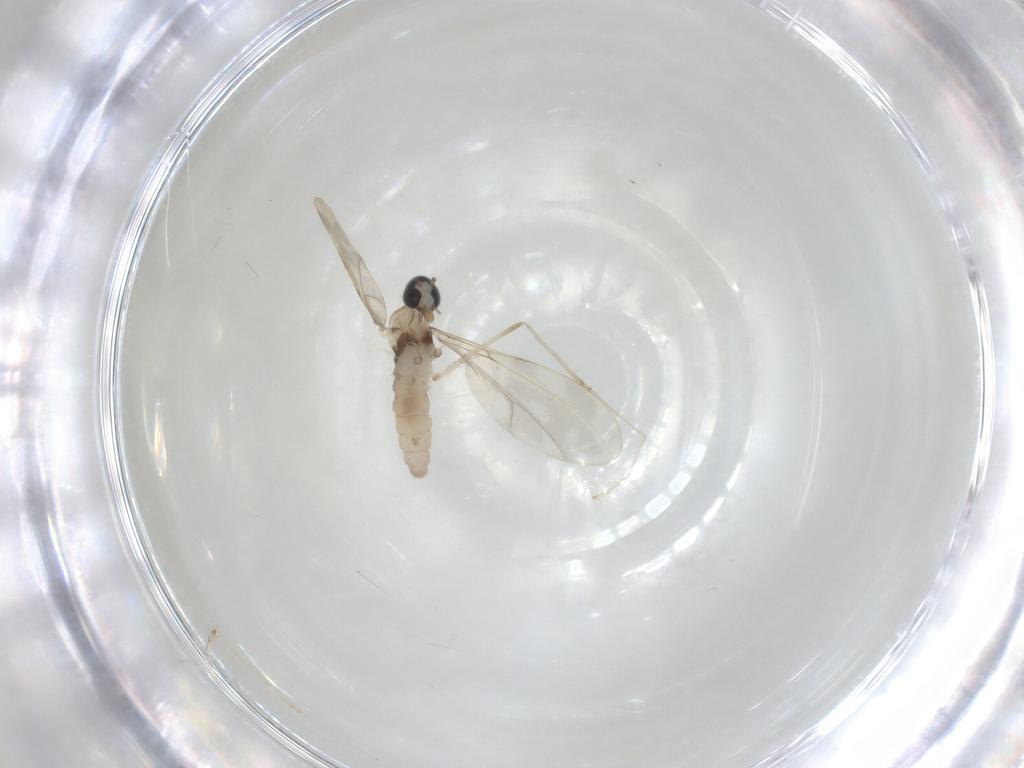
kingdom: Animalia
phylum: Arthropoda
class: Insecta
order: Diptera
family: Cecidomyiidae
